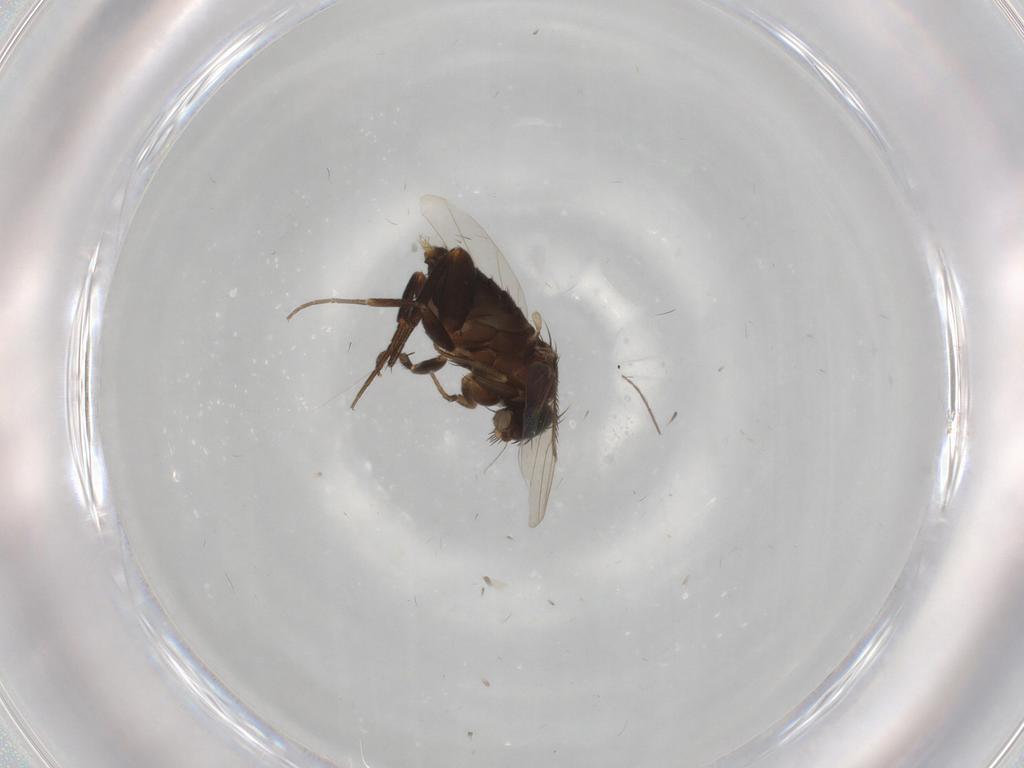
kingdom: Animalia
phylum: Arthropoda
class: Insecta
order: Diptera
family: Phoridae
